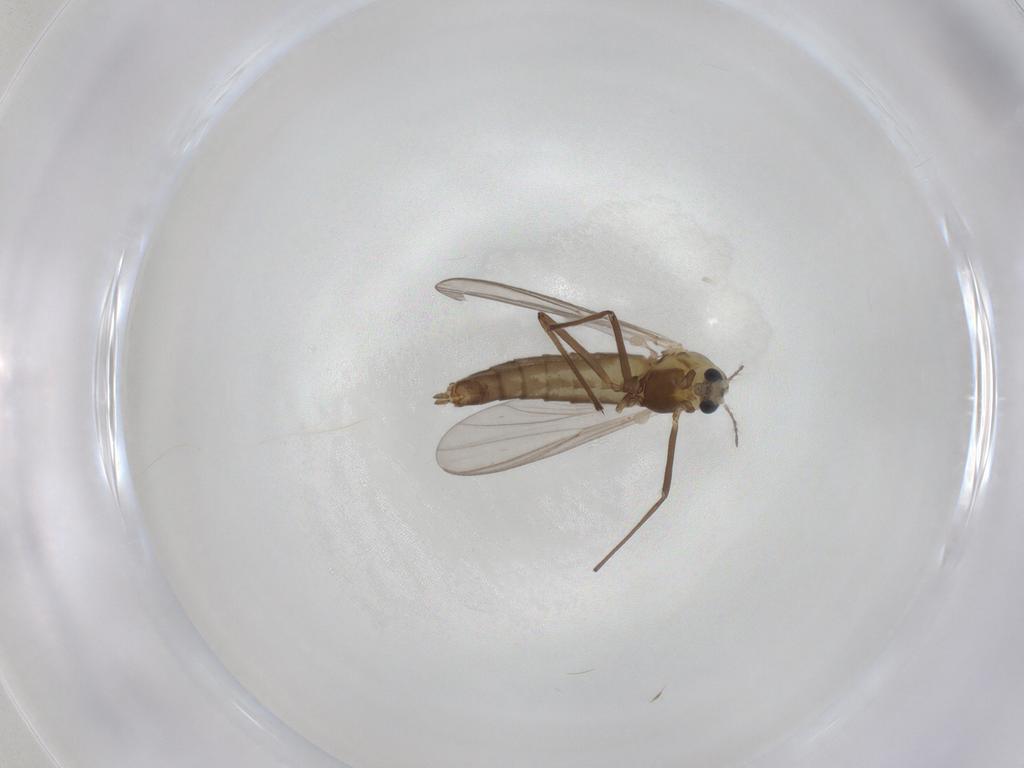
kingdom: Animalia
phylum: Arthropoda
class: Insecta
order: Diptera
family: Chironomidae
